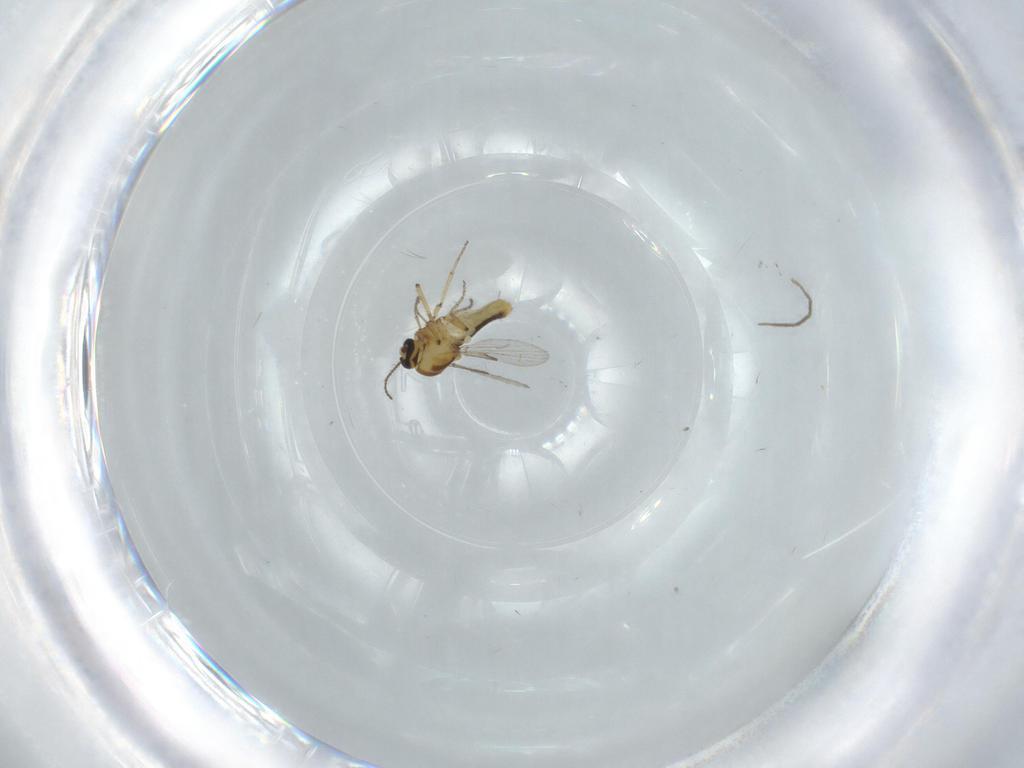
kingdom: Animalia
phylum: Arthropoda
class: Insecta
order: Diptera
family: Ceratopogonidae
